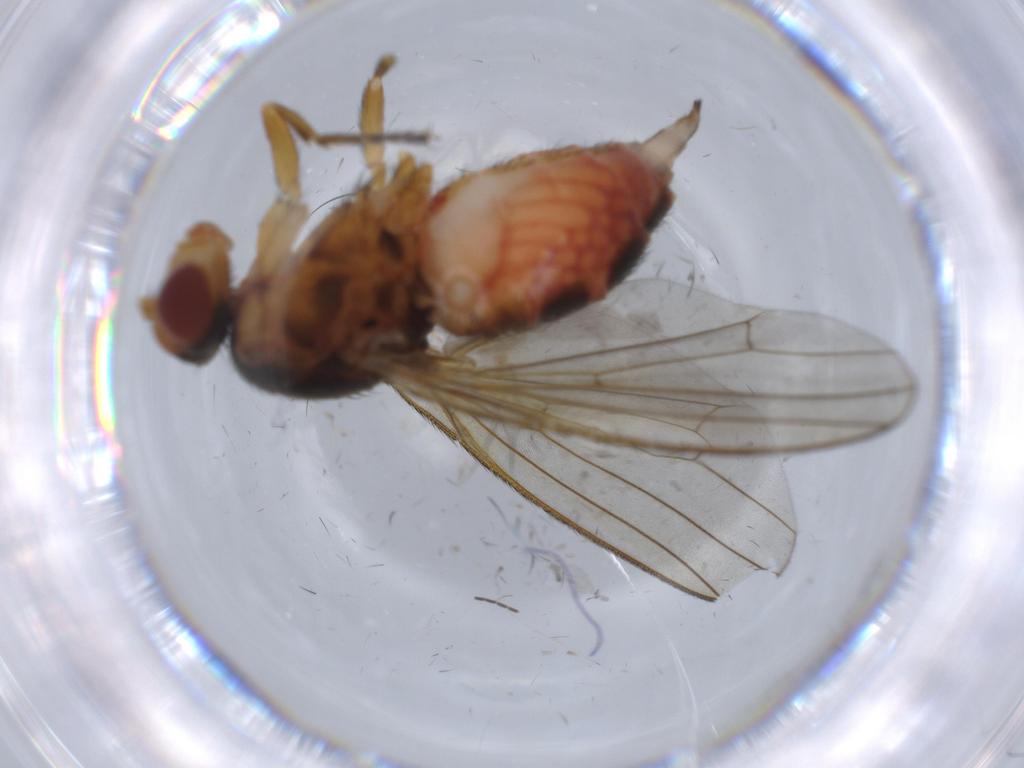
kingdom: Animalia
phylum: Arthropoda
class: Insecta
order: Diptera
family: Heleomyzidae
